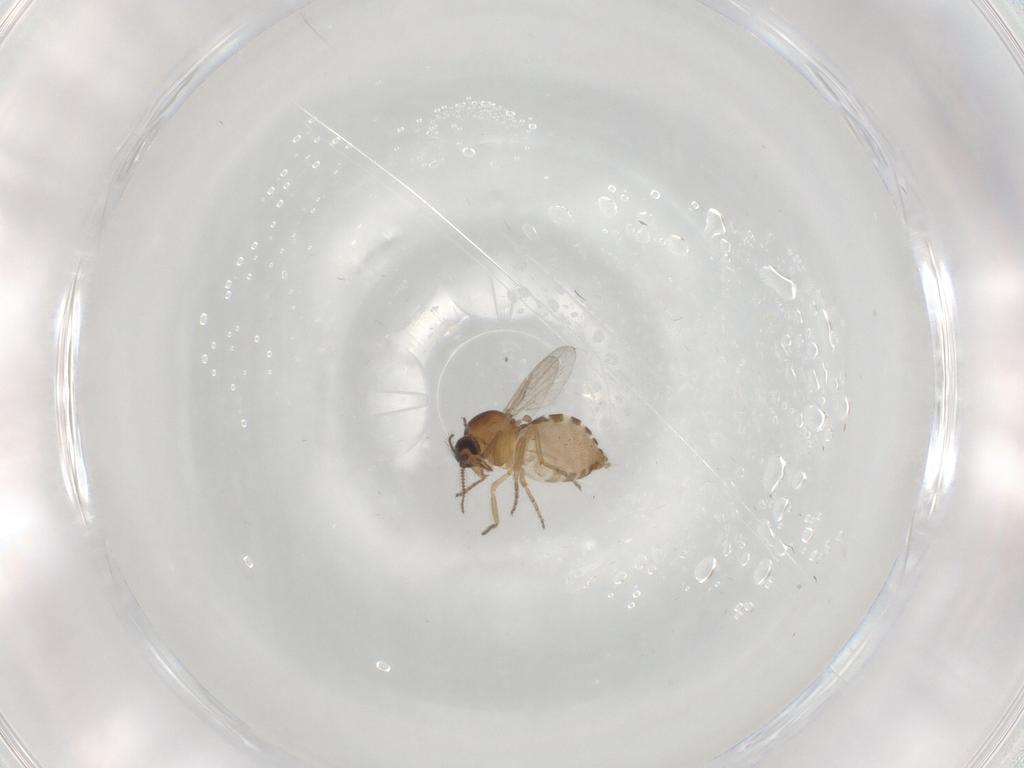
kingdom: Animalia
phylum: Arthropoda
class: Insecta
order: Diptera
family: Ceratopogonidae
